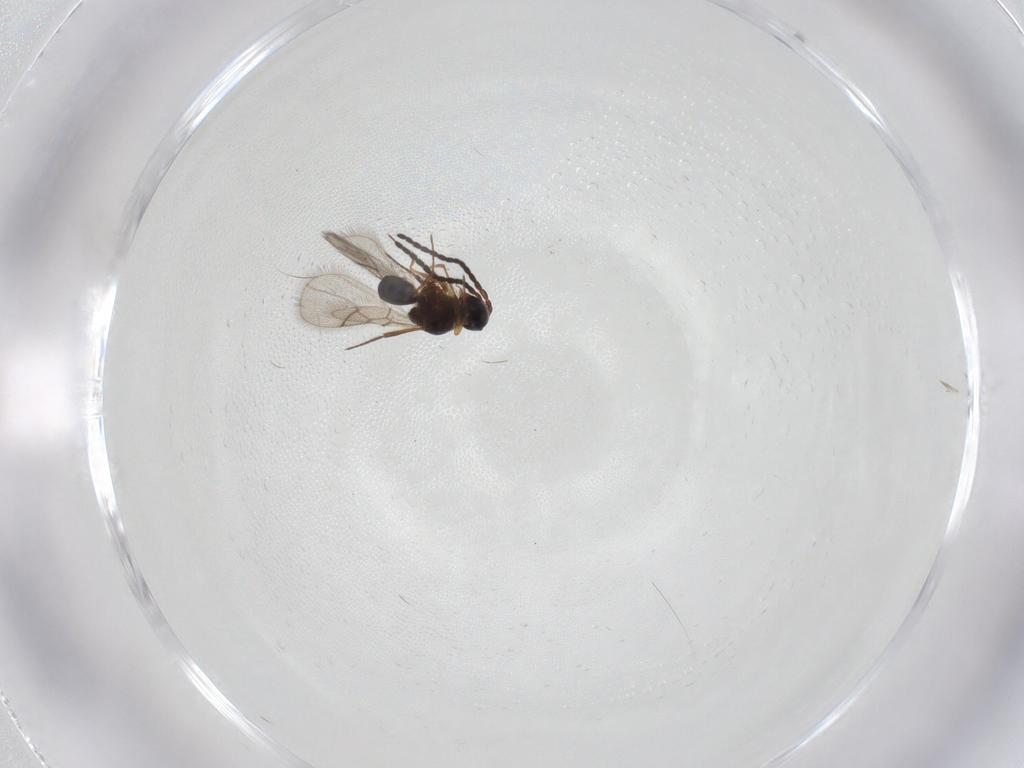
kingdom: Animalia
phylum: Arthropoda
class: Insecta
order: Hymenoptera
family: Figitidae
